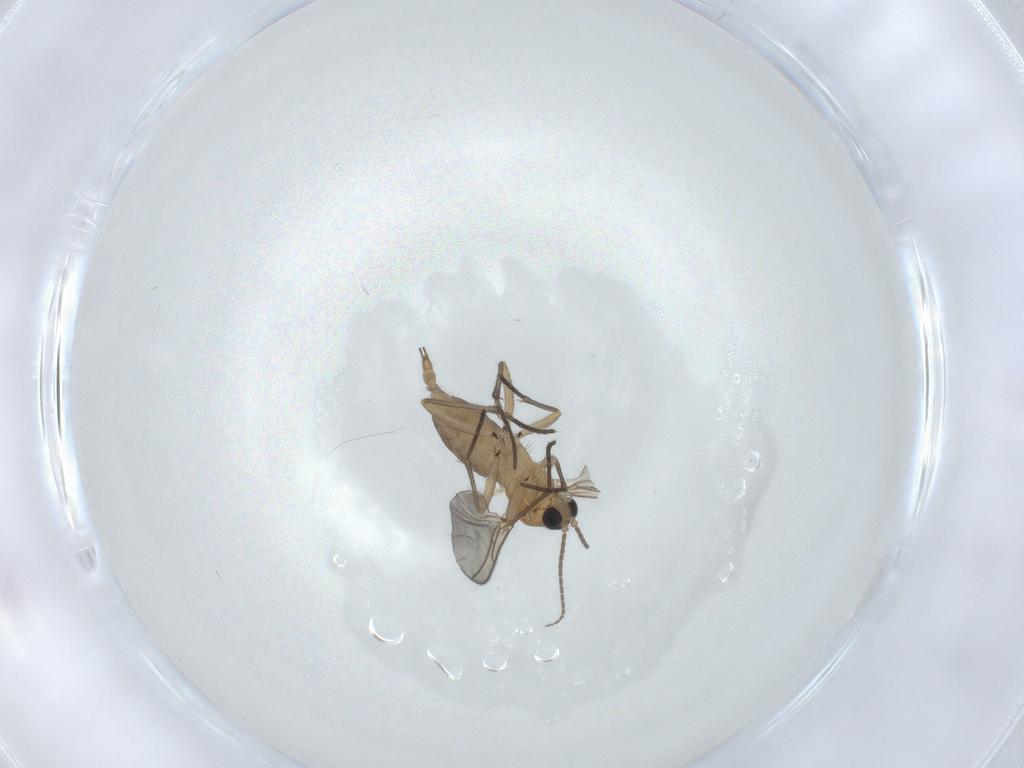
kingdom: Animalia
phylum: Arthropoda
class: Insecta
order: Diptera
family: Sciaridae
